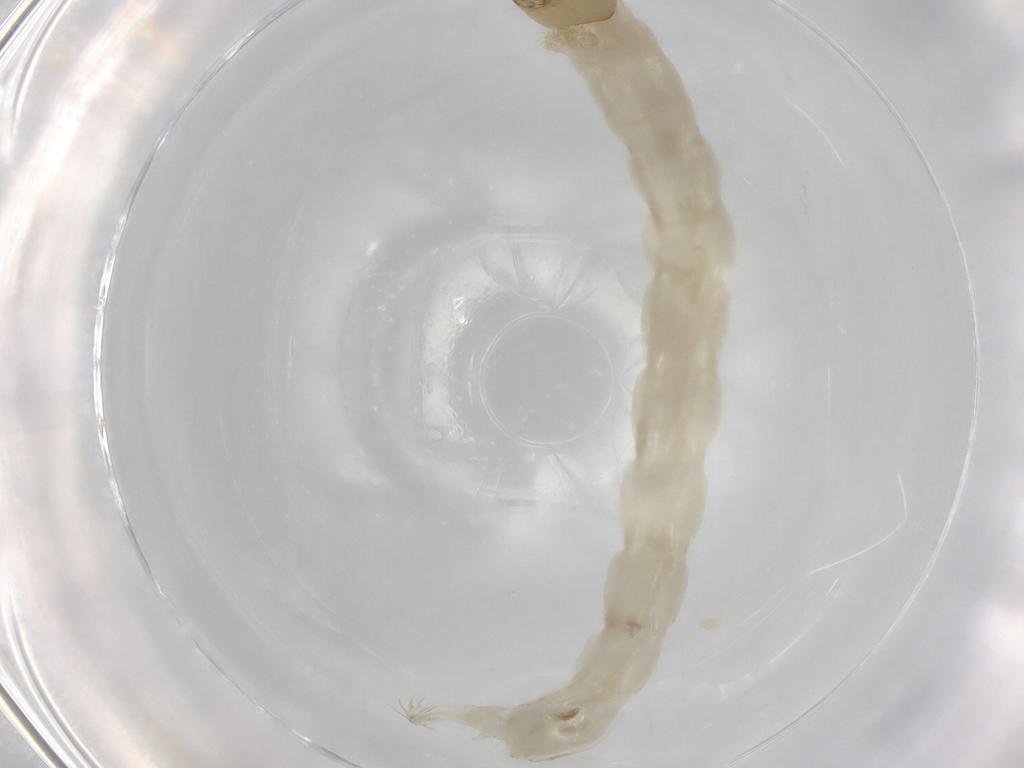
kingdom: Animalia
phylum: Arthropoda
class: Insecta
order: Diptera
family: Chironomidae
